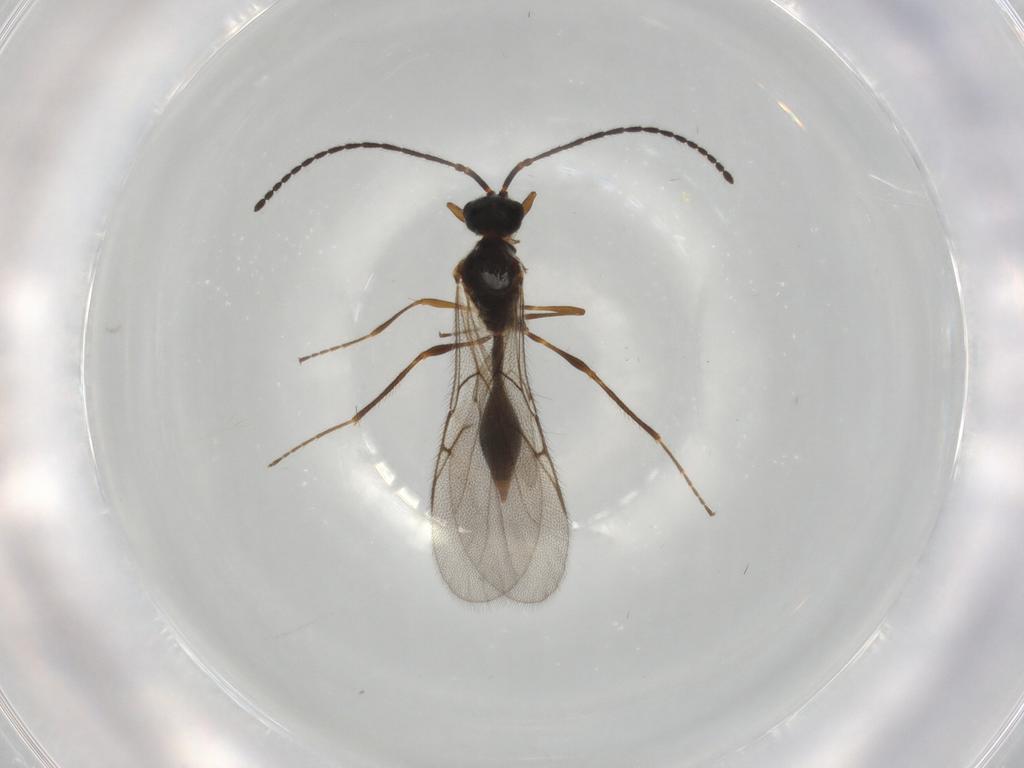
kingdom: Animalia
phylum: Arthropoda
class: Insecta
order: Hymenoptera
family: Diapriidae
